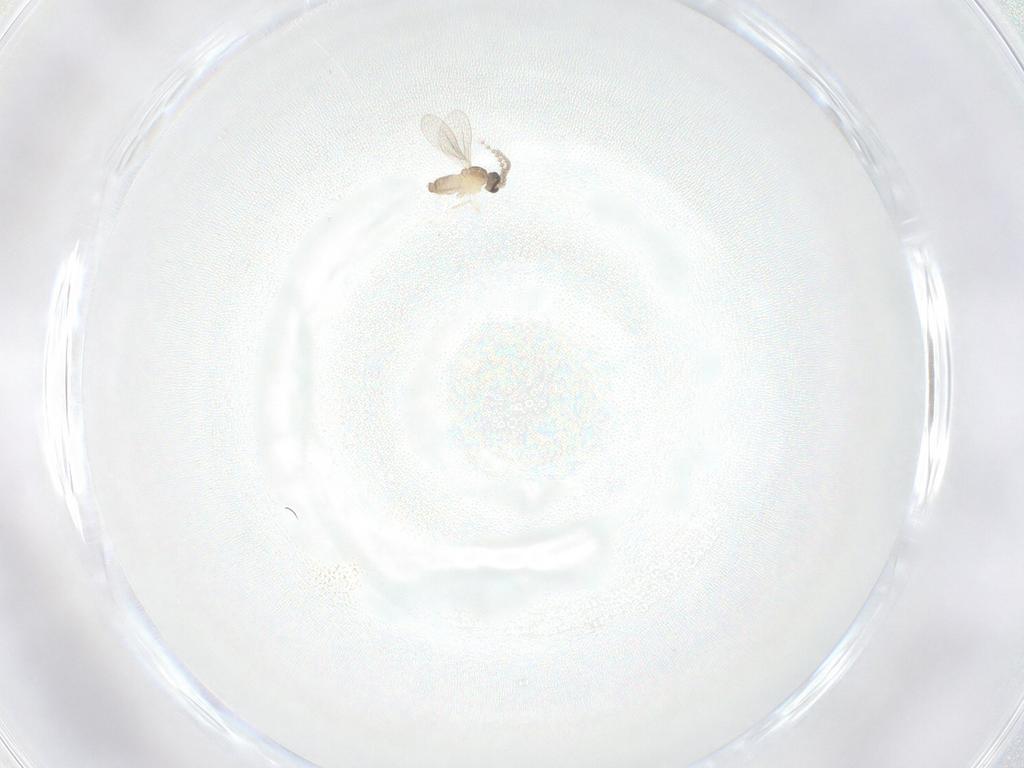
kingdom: Animalia
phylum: Arthropoda
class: Insecta
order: Diptera
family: Cecidomyiidae
